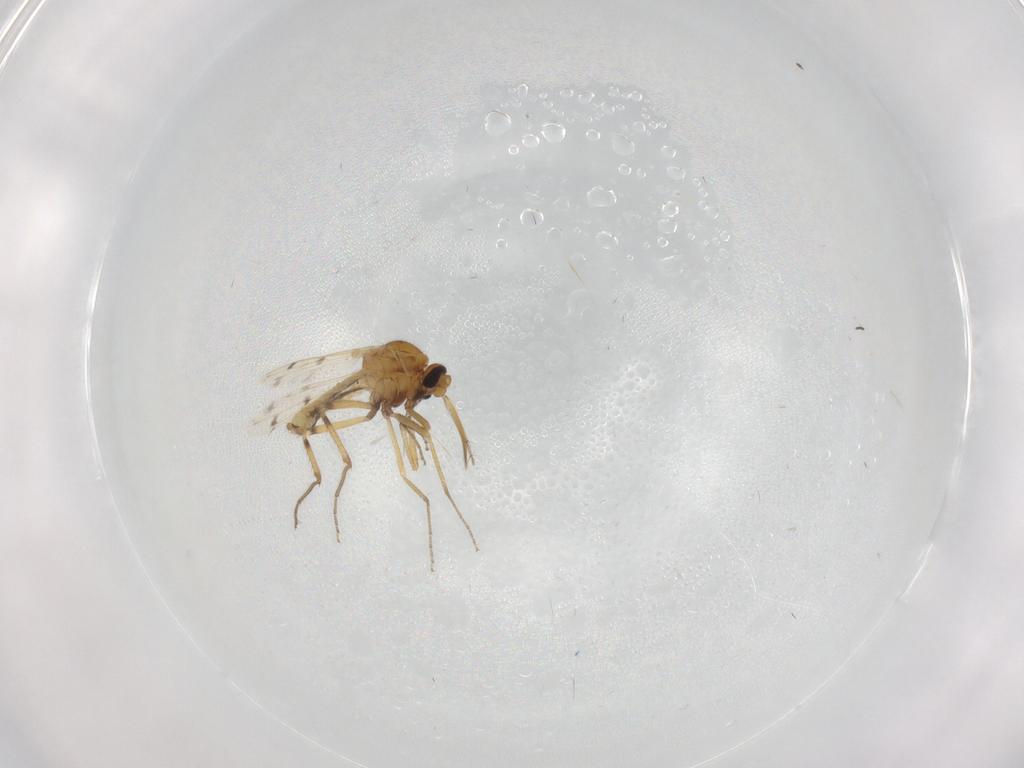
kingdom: Animalia
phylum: Arthropoda
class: Insecta
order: Diptera
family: Ceratopogonidae
